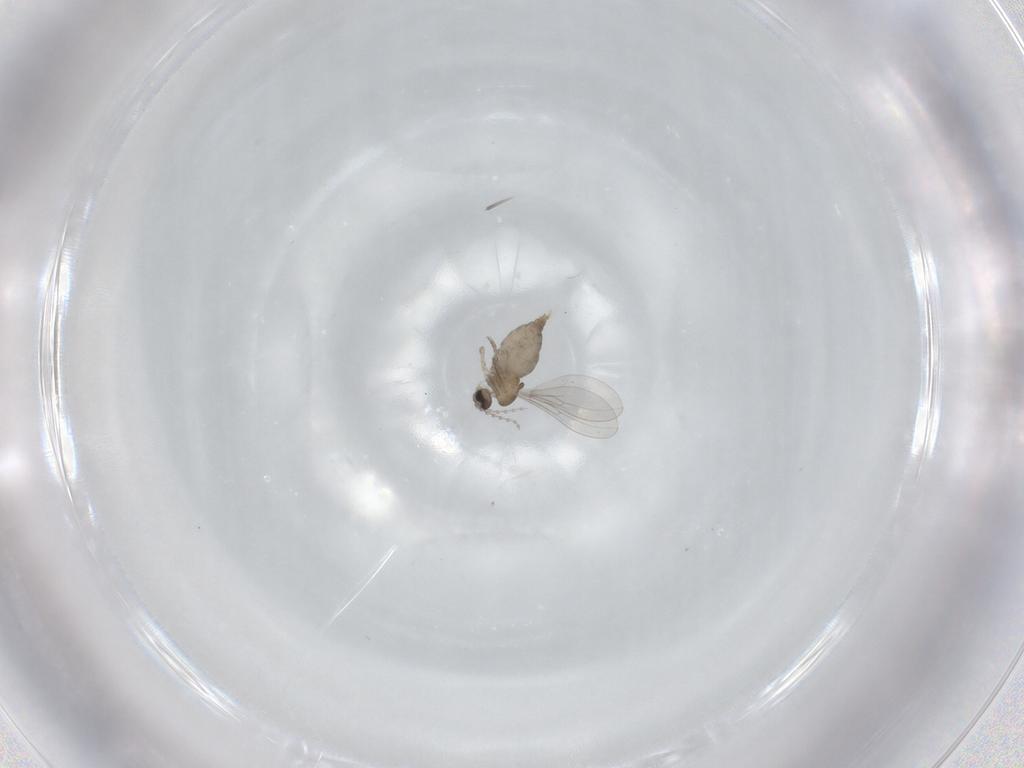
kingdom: Animalia
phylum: Arthropoda
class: Insecta
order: Diptera
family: Cecidomyiidae
